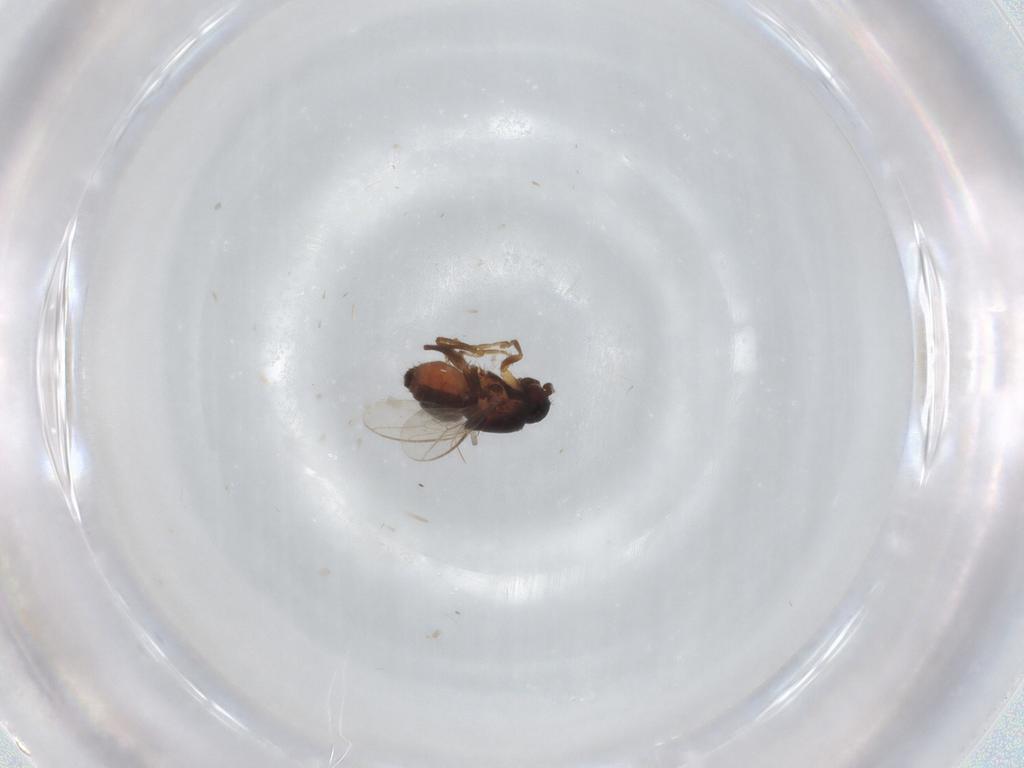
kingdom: Animalia
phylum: Arthropoda
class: Insecta
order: Diptera
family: Sphaeroceridae
